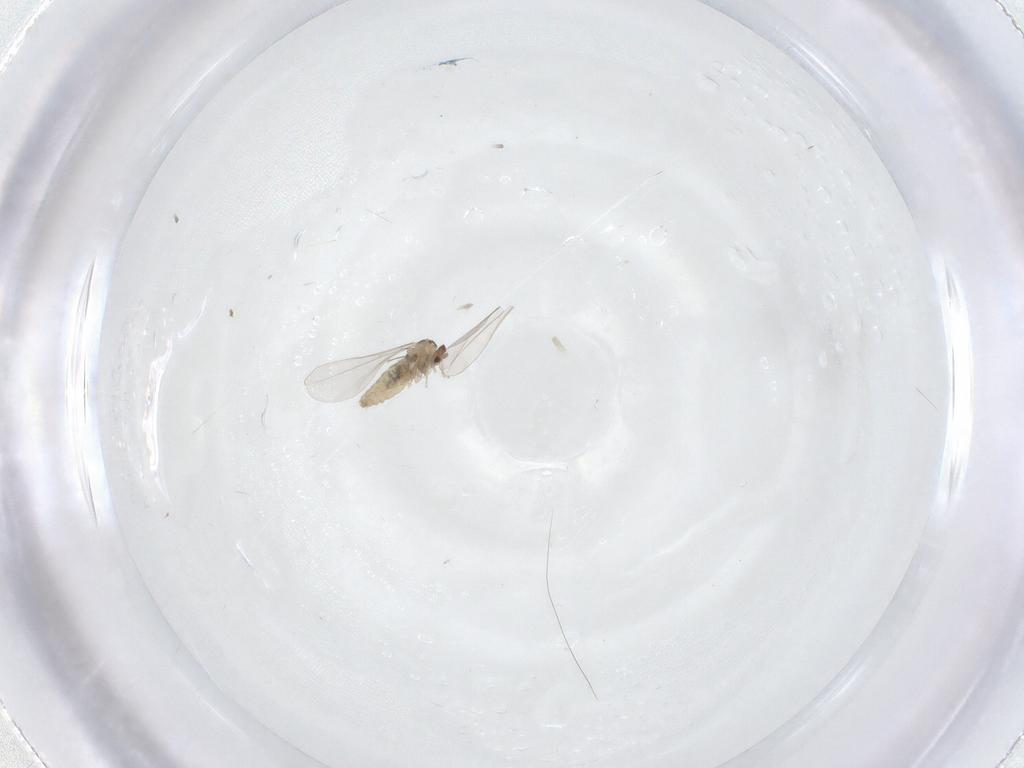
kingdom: Animalia
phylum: Arthropoda
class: Insecta
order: Diptera
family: Cecidomyiidae
